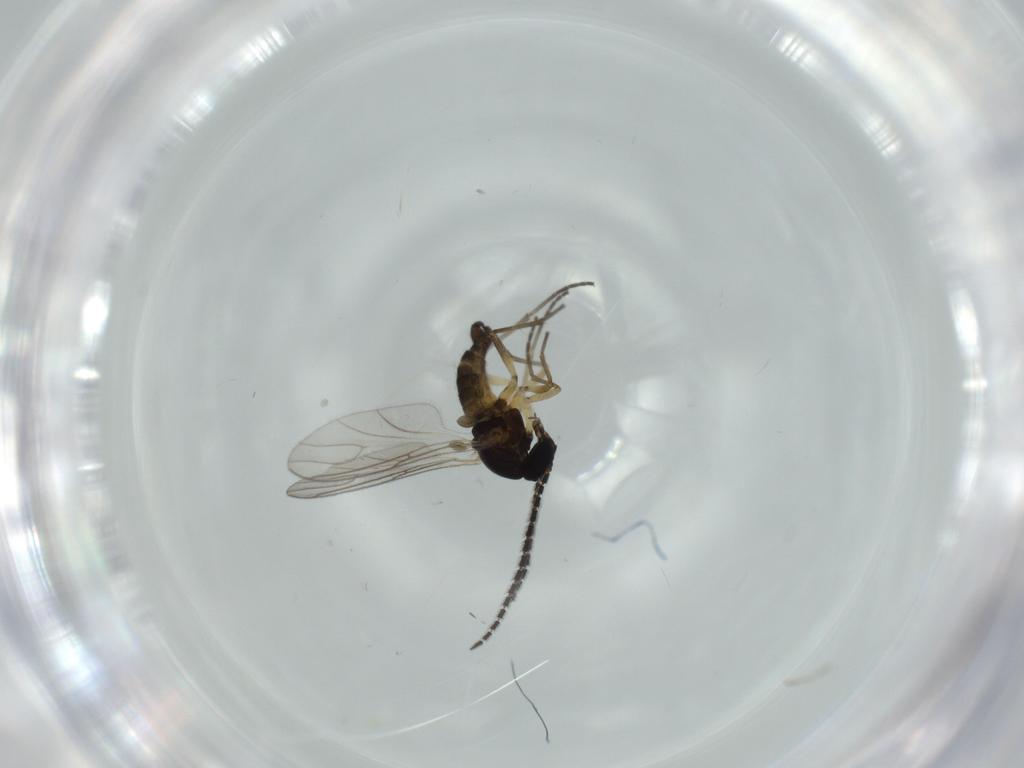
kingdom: Animalia
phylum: Arthropoda
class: Insecta
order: Diptera
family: Sciaridae
